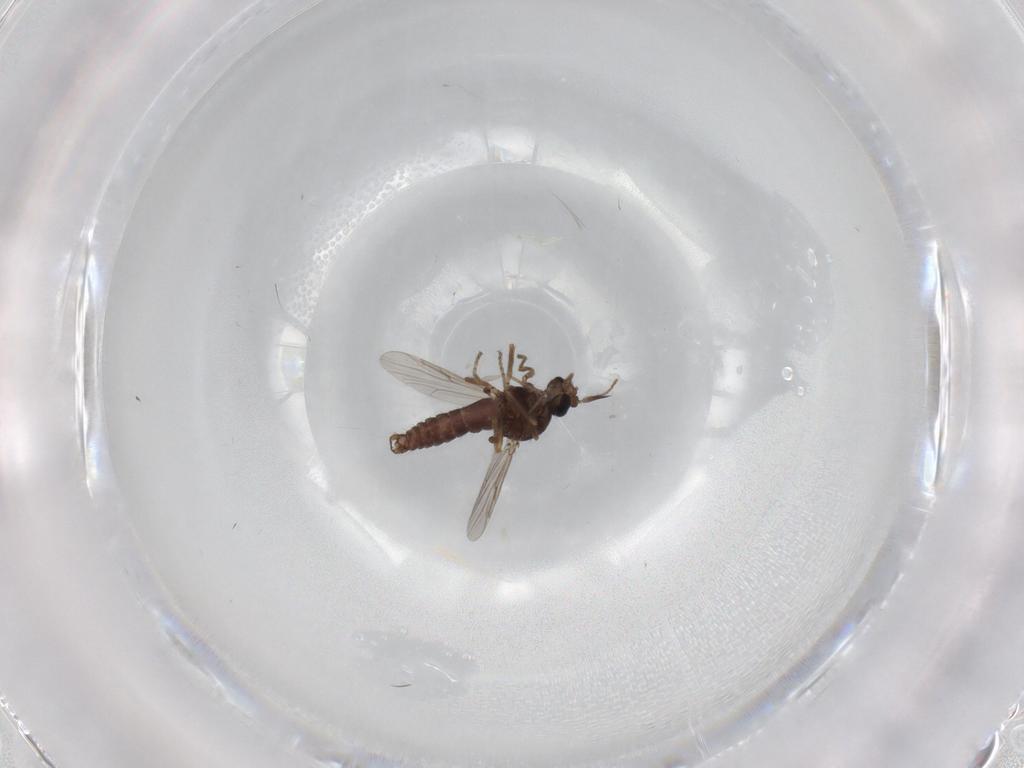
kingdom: Animalia
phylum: Arthropoda
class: Insecta
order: Diptera
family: Ceratopogonidae
